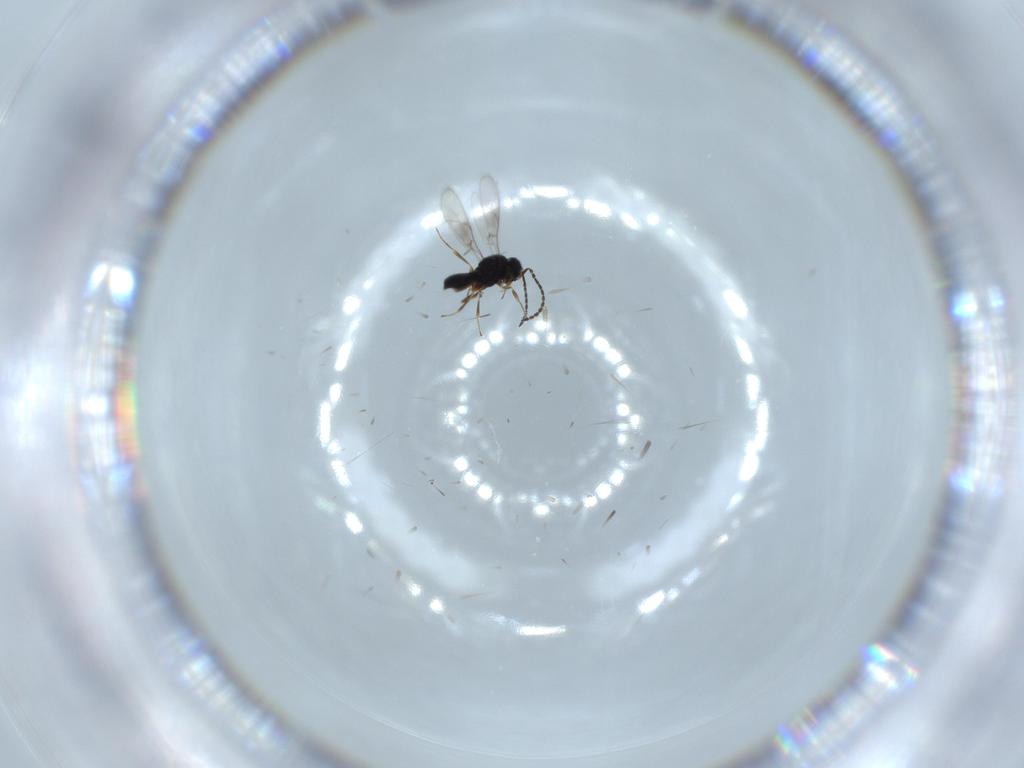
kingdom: Animalia
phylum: Arthropoda
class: Insecta
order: Hymenoptera
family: Scelionidae
